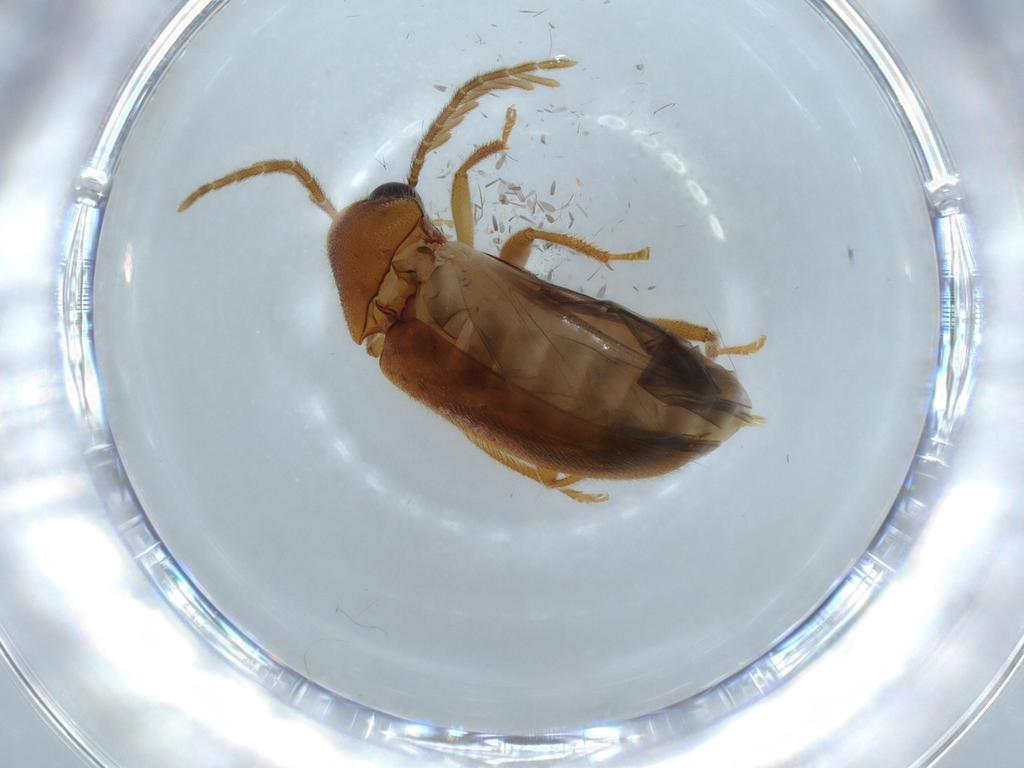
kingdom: Animalia
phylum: Arthropoda
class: Insecta
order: Coleoptera
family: Ptilodactylidae
